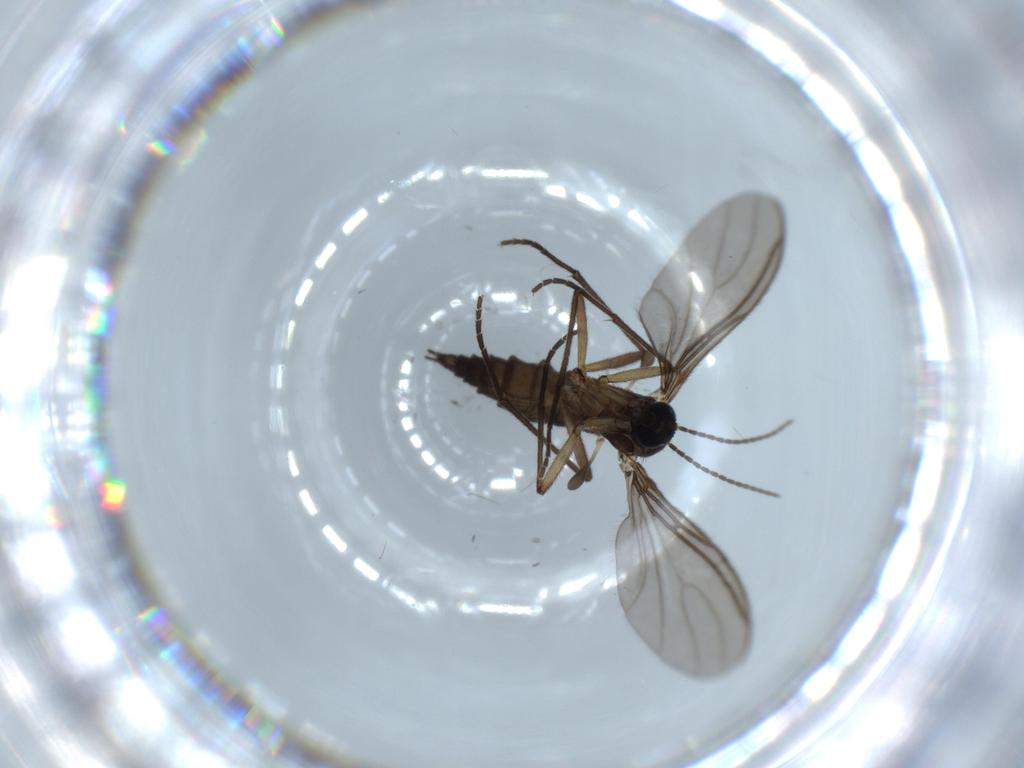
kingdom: Animalia
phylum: Arthropoda
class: Insecta
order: Diptera
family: Sciaridae
